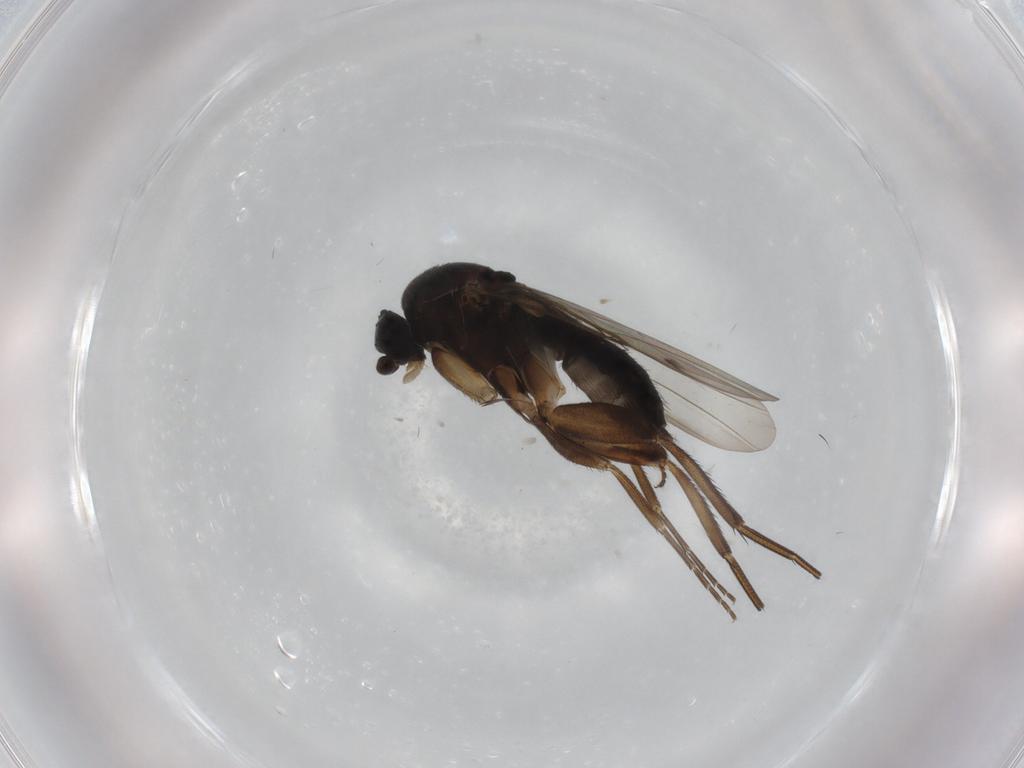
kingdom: Animalia
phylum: Arthropoda
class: Insecta
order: Diptera
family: Phoridae
